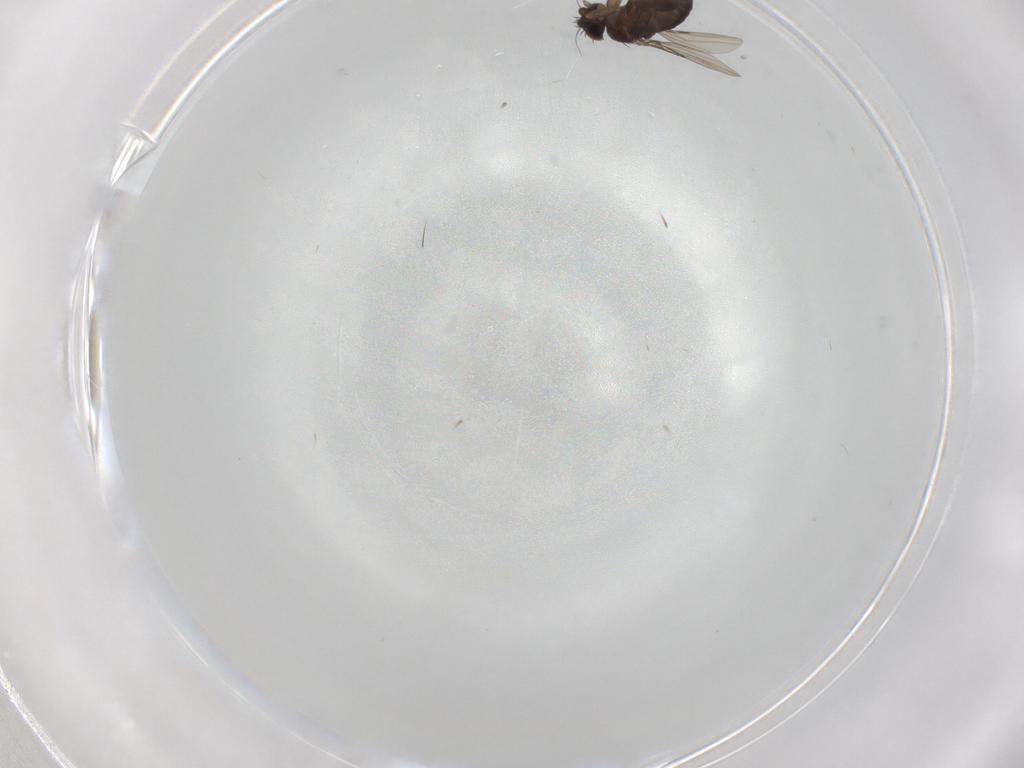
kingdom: Animalia
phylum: Arthropoda
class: Insecta
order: Diptera
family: Phoridae
